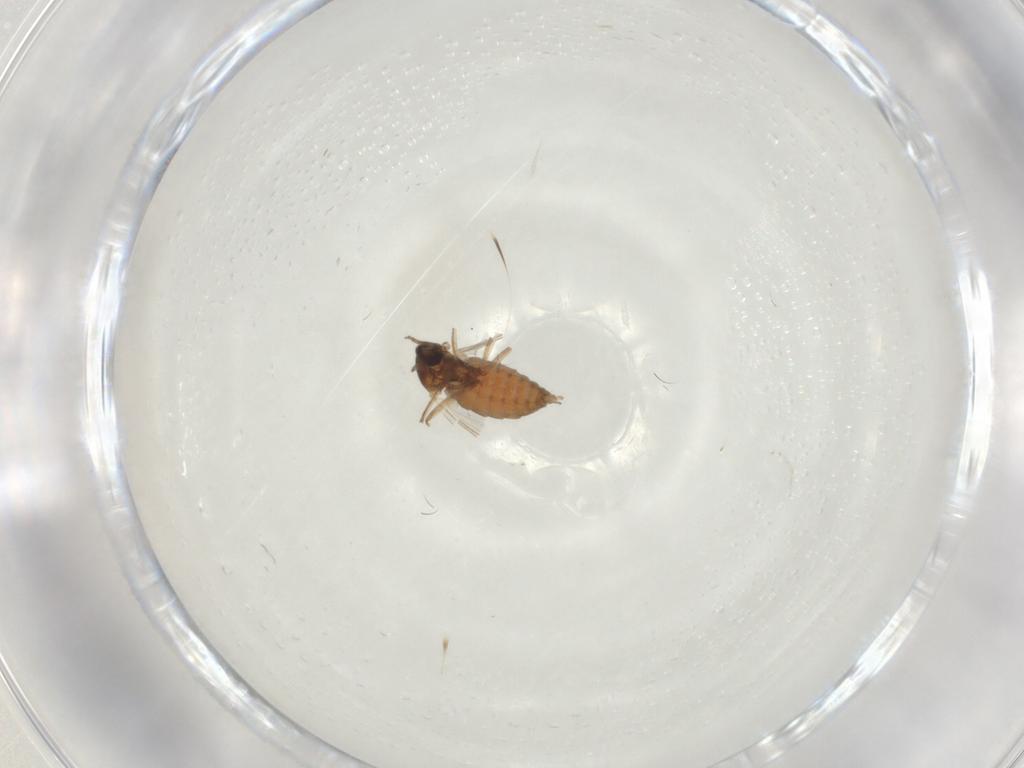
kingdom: Animalia
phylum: Arthropoda
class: Insecta
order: Diptera
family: Cecidomyiidae
